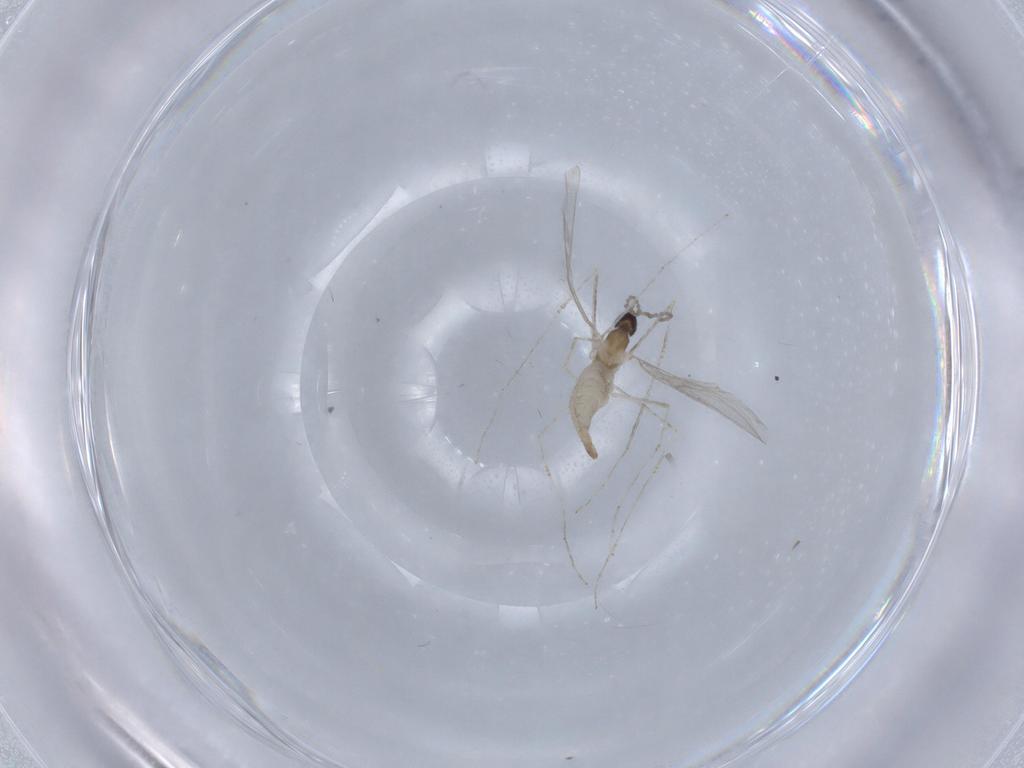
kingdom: Animalia
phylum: Arthropoda
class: Insecta
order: Diptera
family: Cecidomyiidae
